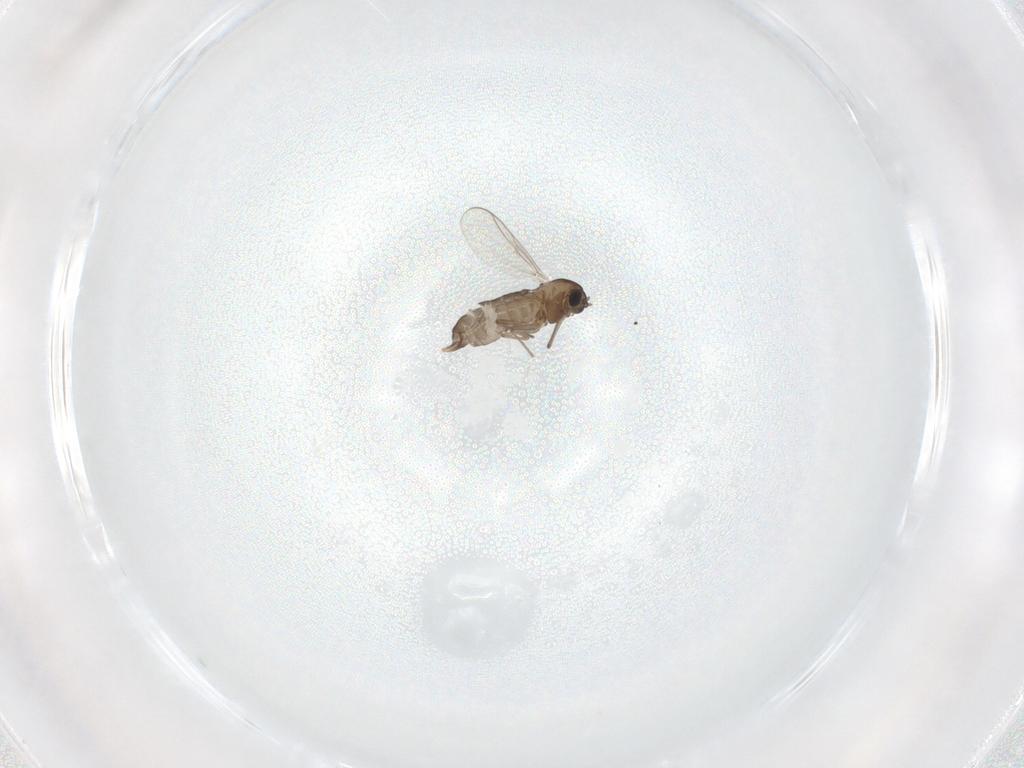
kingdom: Animalia
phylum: Arthropoda
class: Insecta
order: Diptera
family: Chironomidae
